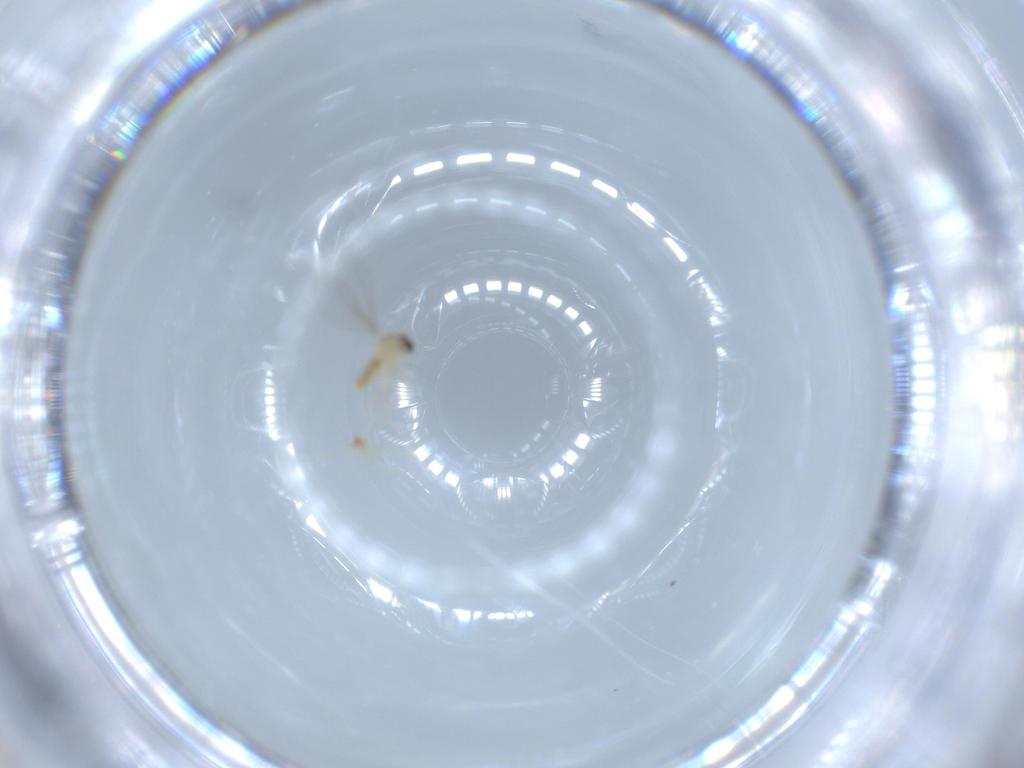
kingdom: Animalia
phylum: Arthropoda
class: Insecta
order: Diptera
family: Cecidomyiidae
